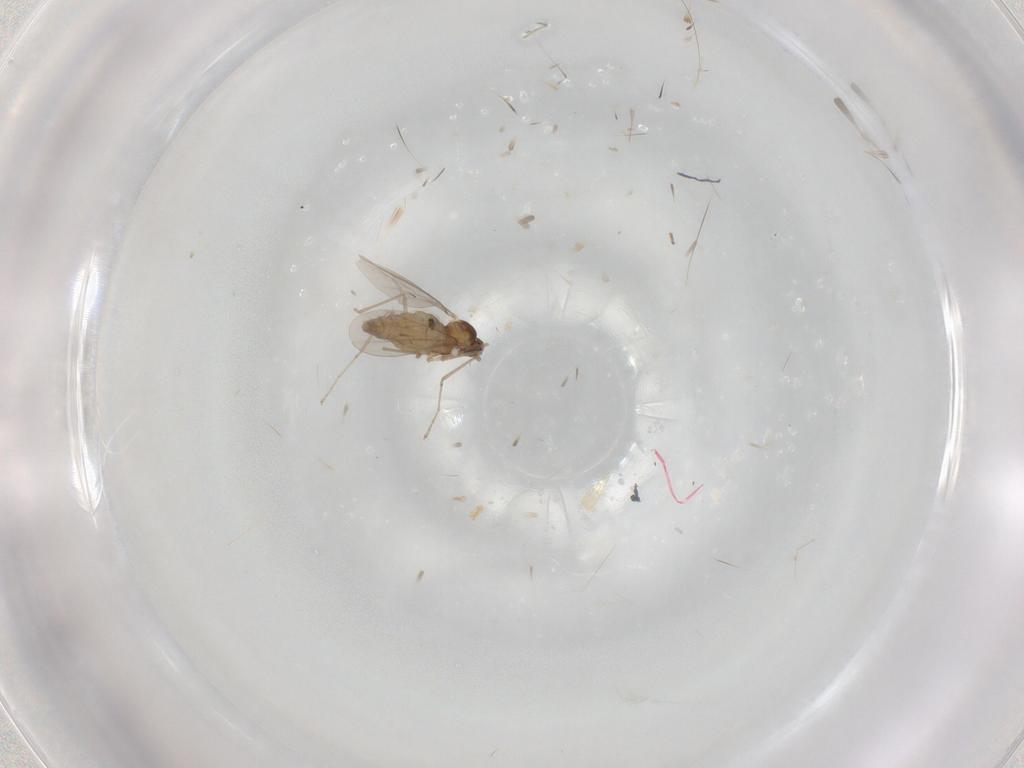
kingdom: Animalia
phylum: Arthropoda
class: Insecta
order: Diptera
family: Cecidomyiidae
